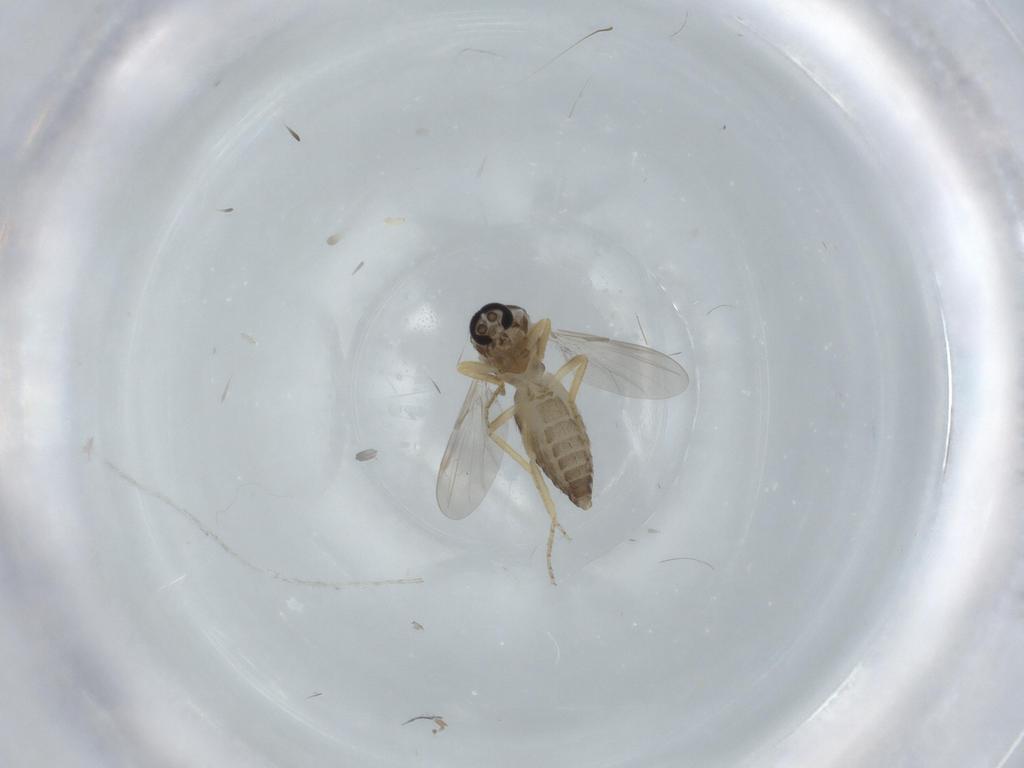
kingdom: Animalia
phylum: Arthropoda
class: Insecta
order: Diptera
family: Ceratopogonidae
